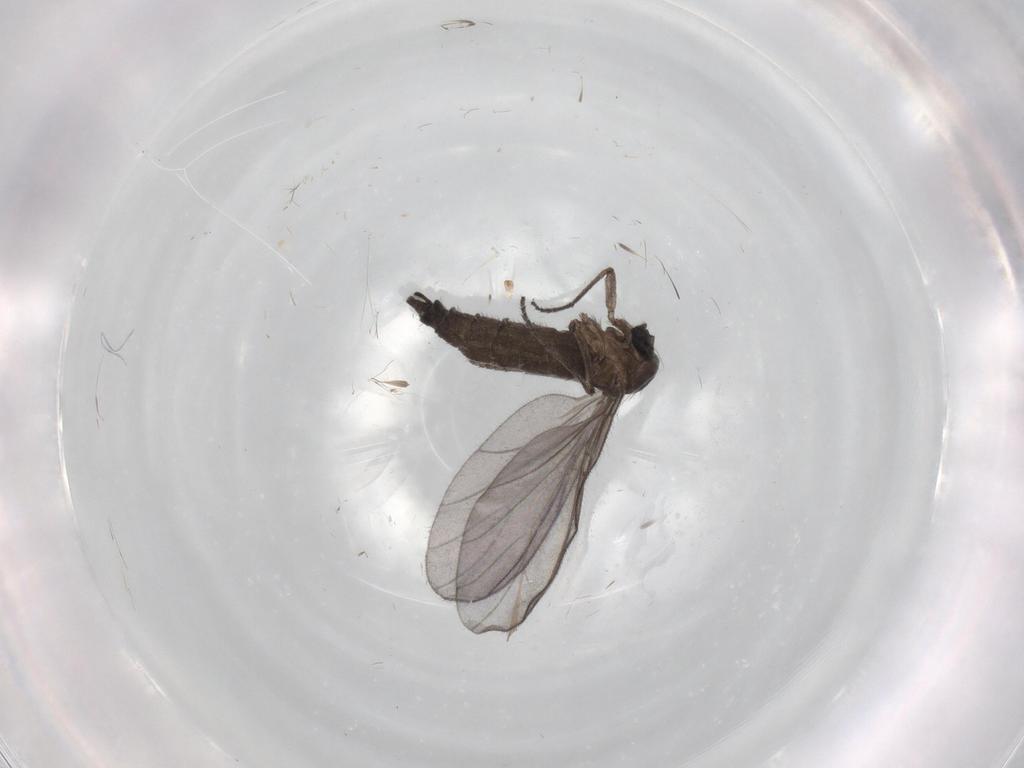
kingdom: Animalia
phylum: Arthropoda
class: Insecta
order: Diptera
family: Sciaridae
